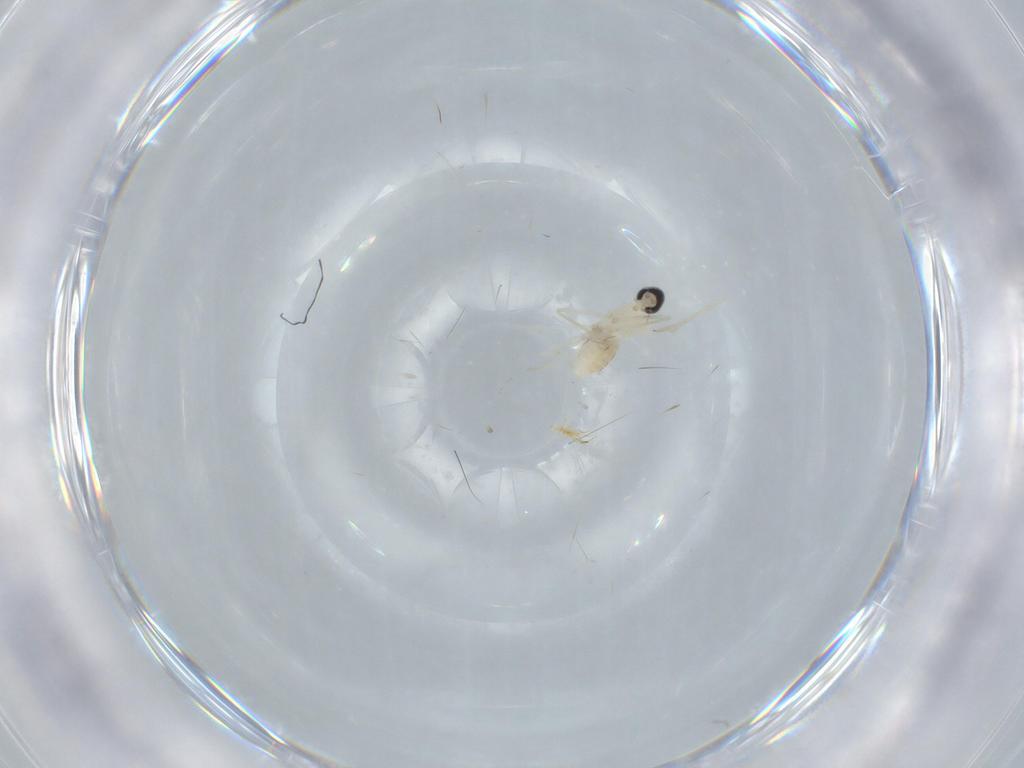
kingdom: Animalia
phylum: Arthropoda
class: Insecta
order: Diptera
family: Cecidomyiidae
